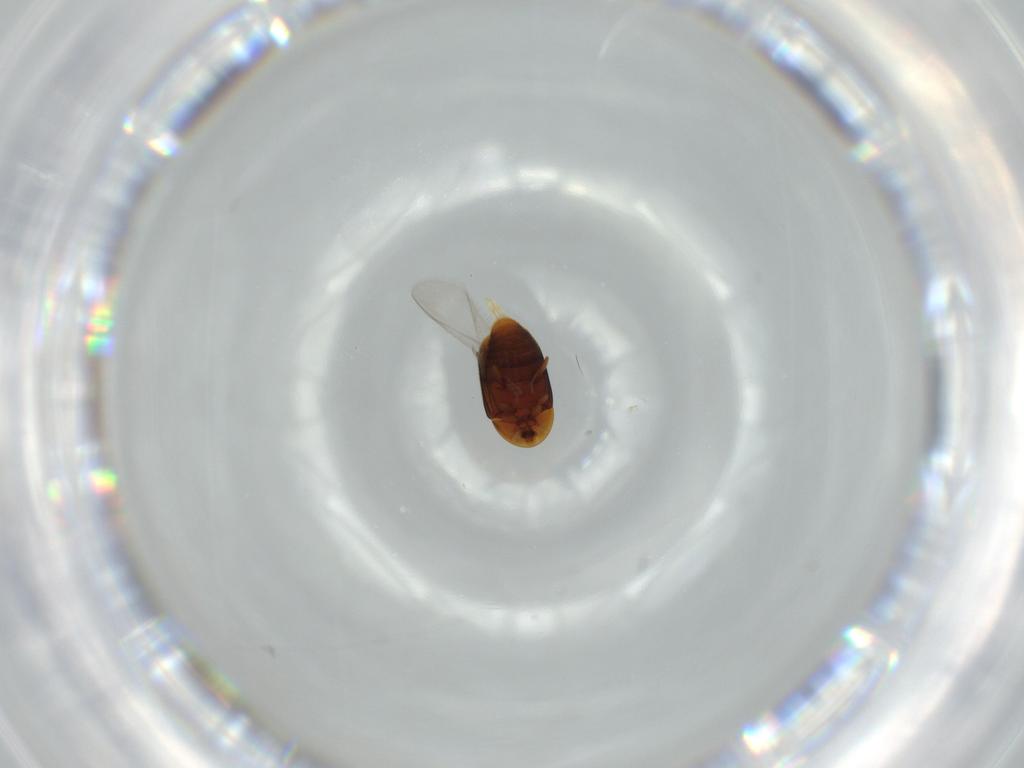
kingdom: Animalia
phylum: Arthropoda
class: Insecta
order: Coleoptera
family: Corylophidae
